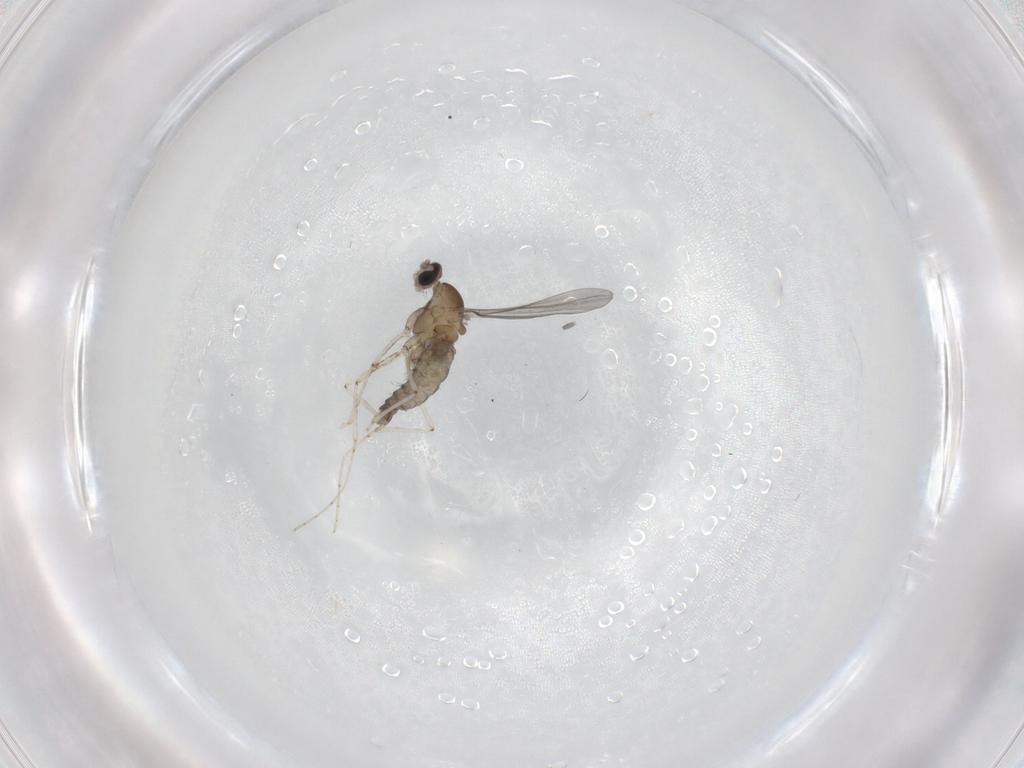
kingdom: Animalia
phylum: Arthropoda
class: Insecta
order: Diptera
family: Cecidomyiidae
